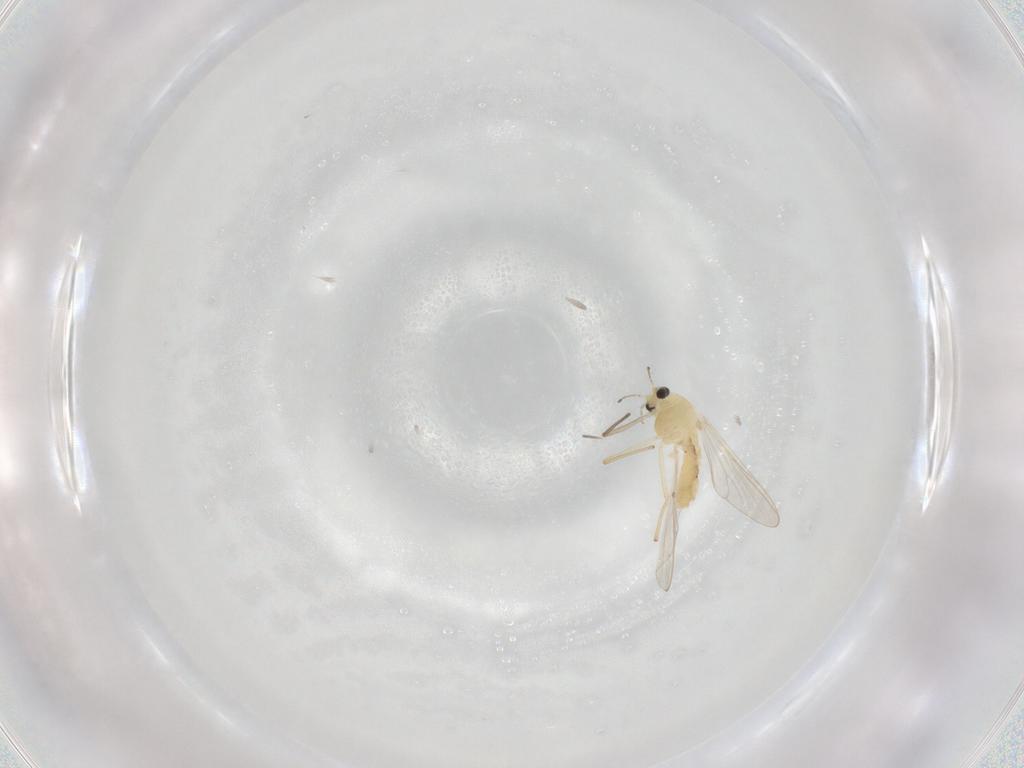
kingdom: Animalia
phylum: Arthropoda
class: Insecta
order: Diptera
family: Chironomidae
